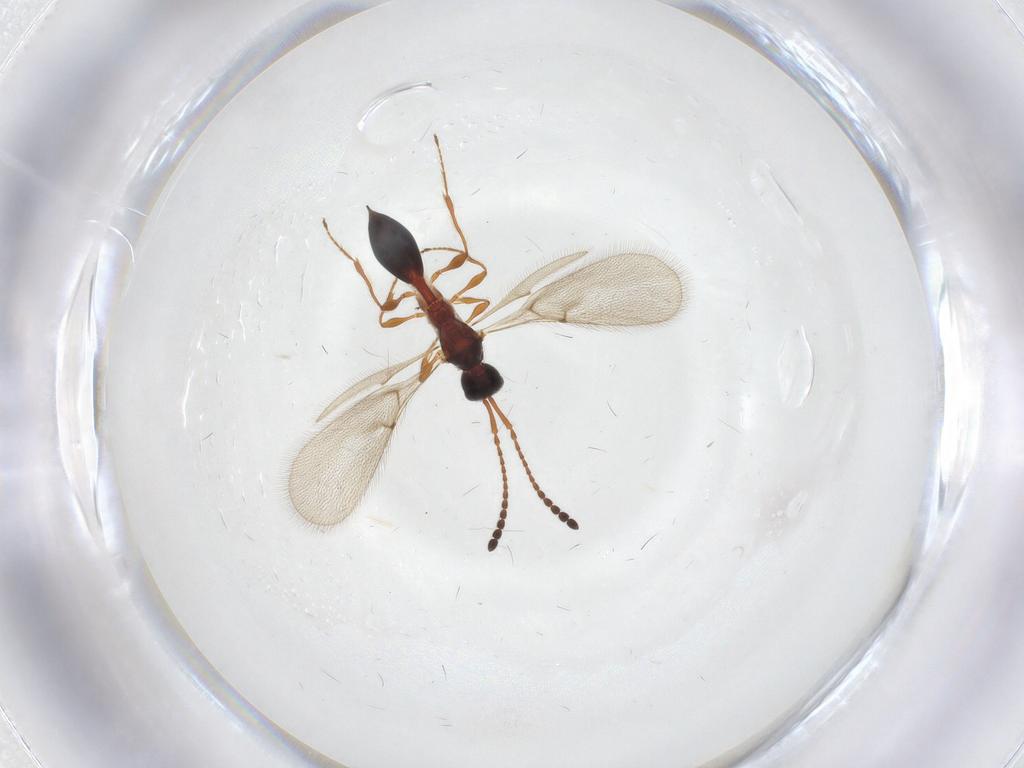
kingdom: Animalia
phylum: Arthropoda
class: Insecta
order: Hymenoptera
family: Diapriidae
